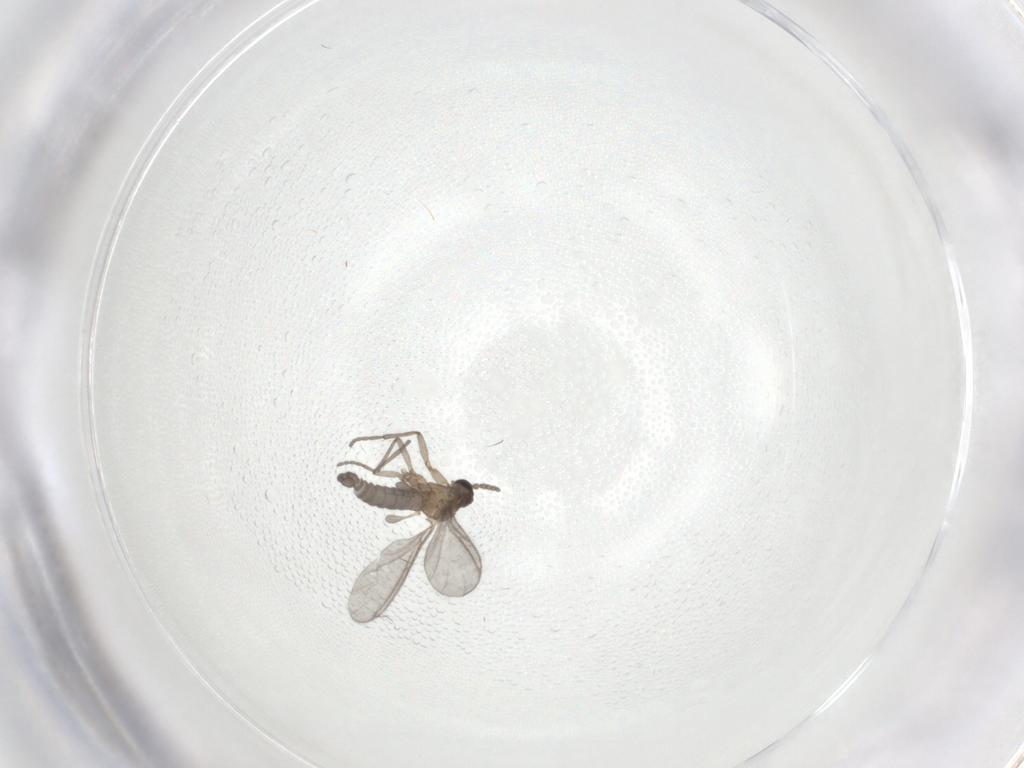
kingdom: Animalia
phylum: Arthropoda
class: Insecta
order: Diptera
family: Sciaridae
